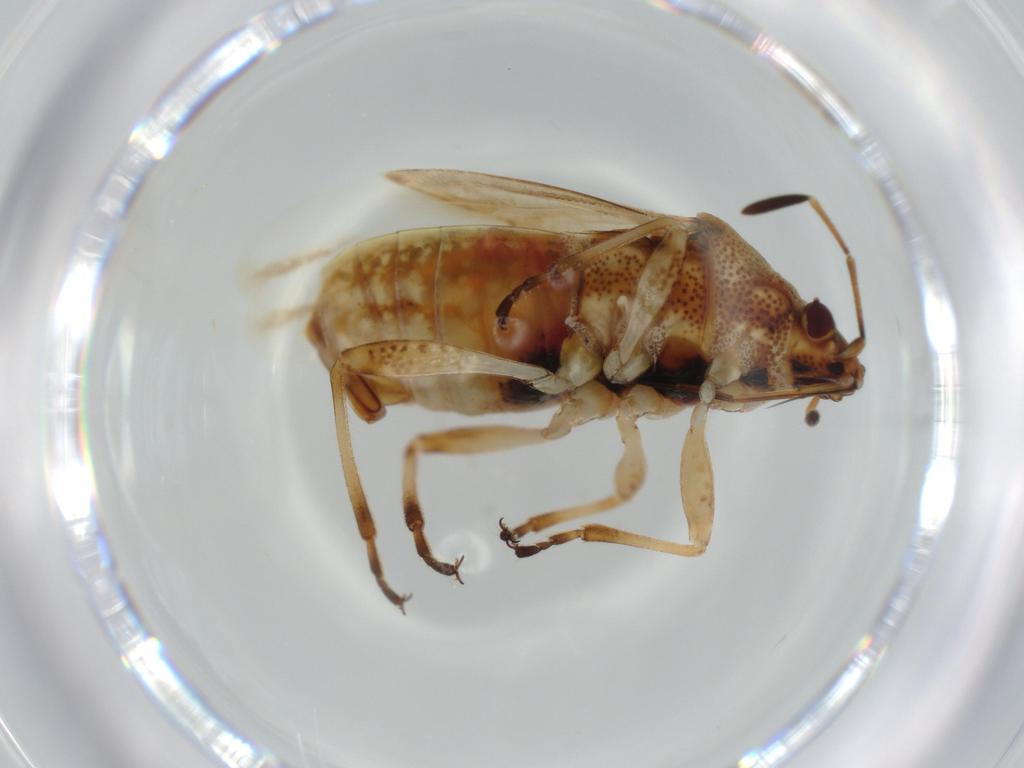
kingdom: Animalia
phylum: Arthropoda
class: Insecta
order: Hemiptera
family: Lygaeidae
